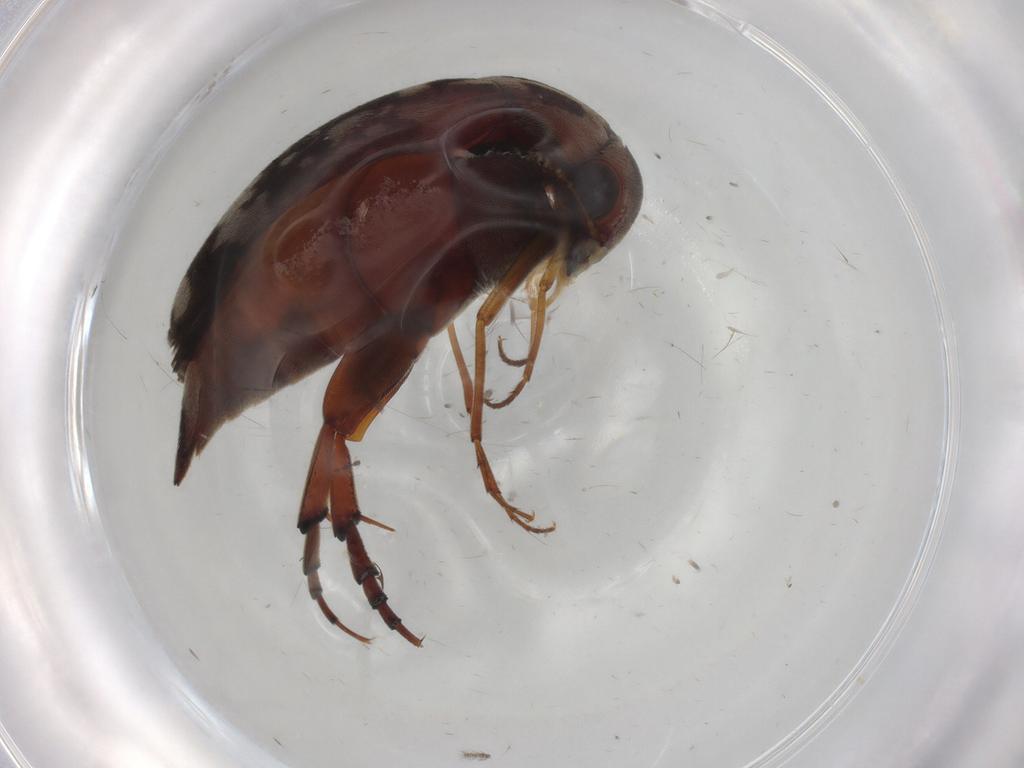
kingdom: Animalia
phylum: Arthropoda
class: Insecta
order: Coleoptera
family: Mordellidae
